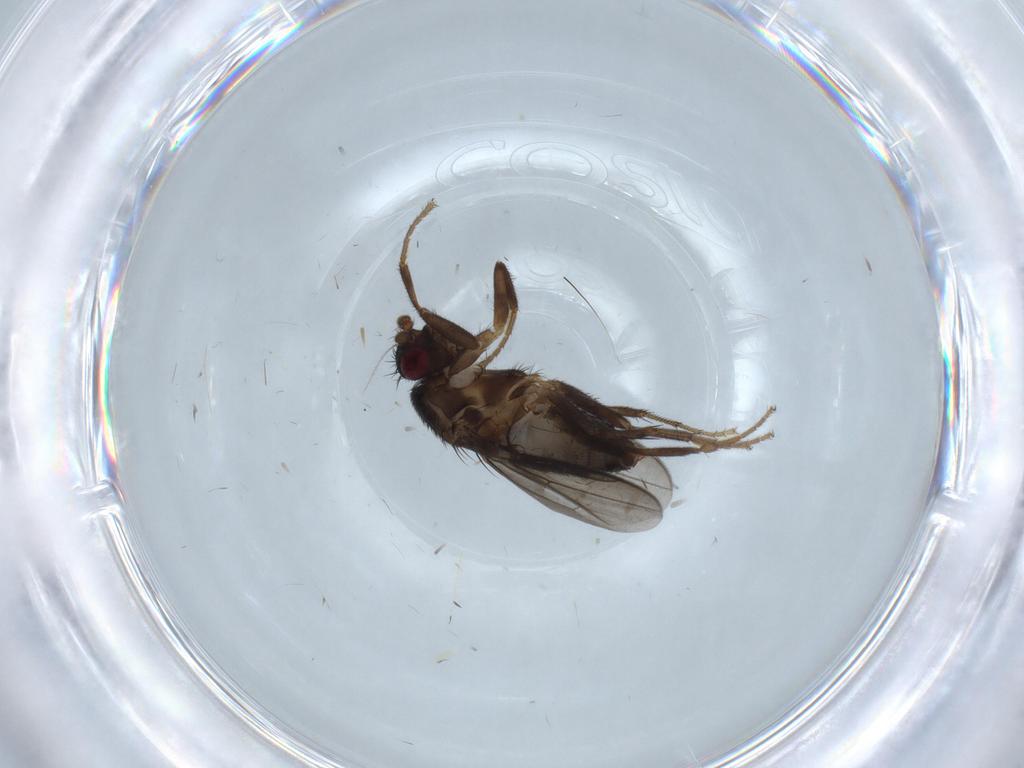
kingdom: Animalia
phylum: Arthropoda
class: Insecta
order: Diptera
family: Sphaeroceridae
